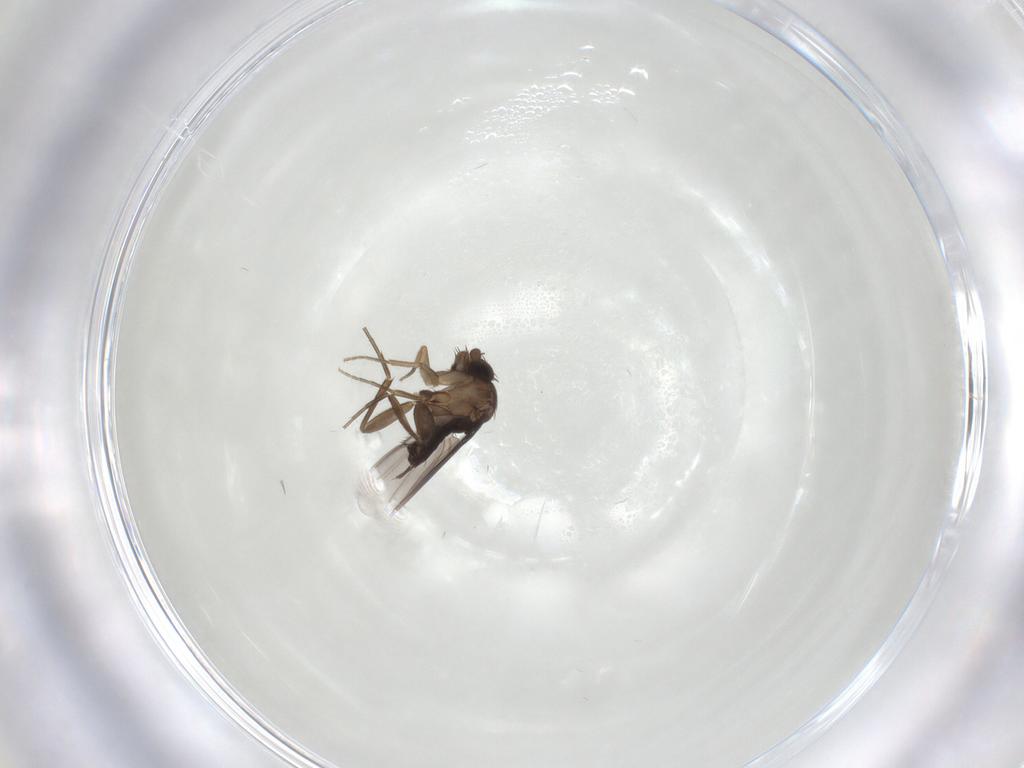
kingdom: Animalia
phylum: Arthropoda
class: Insecta
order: Diptera
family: Phoridae
